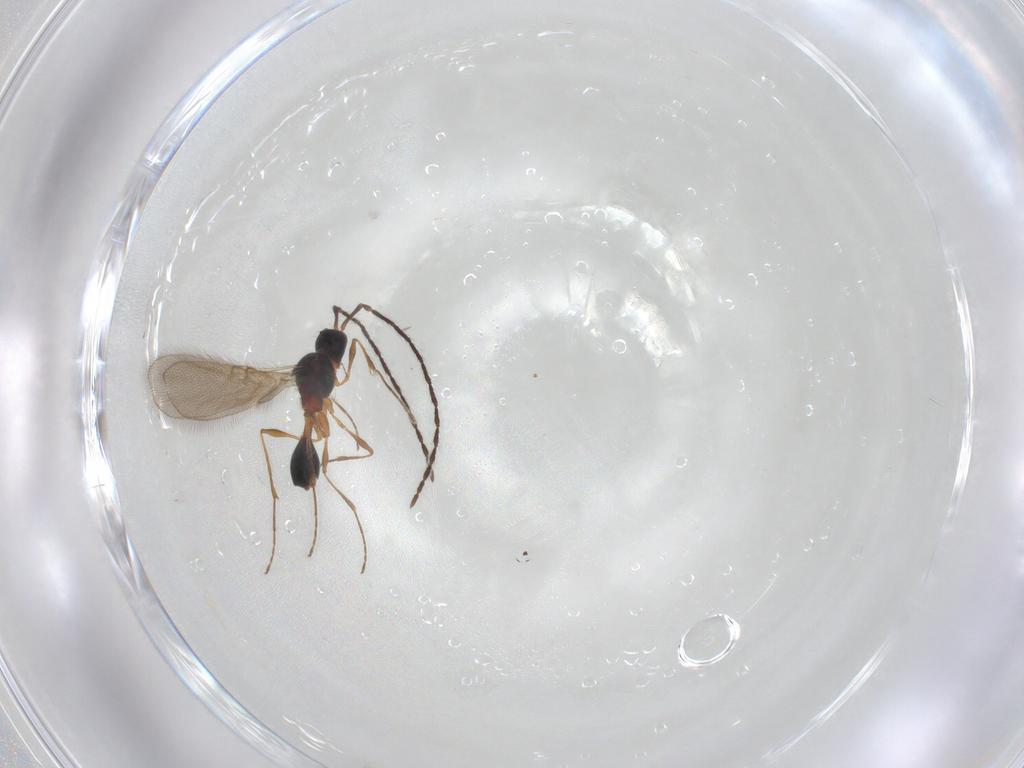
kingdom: Animalia
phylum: Arthropoda
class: Insecta
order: Hymenoptera
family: Diapriidae
